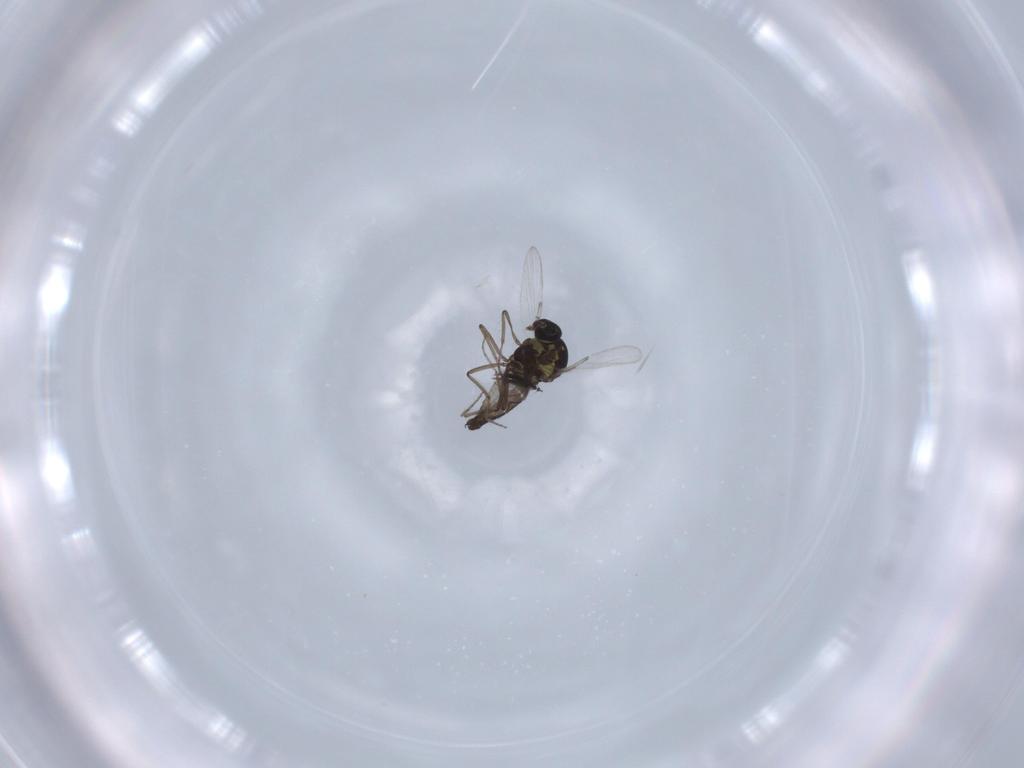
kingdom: Animalia
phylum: Arthropoda
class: Insecta
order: Diptera
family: Ceratopogonidae
